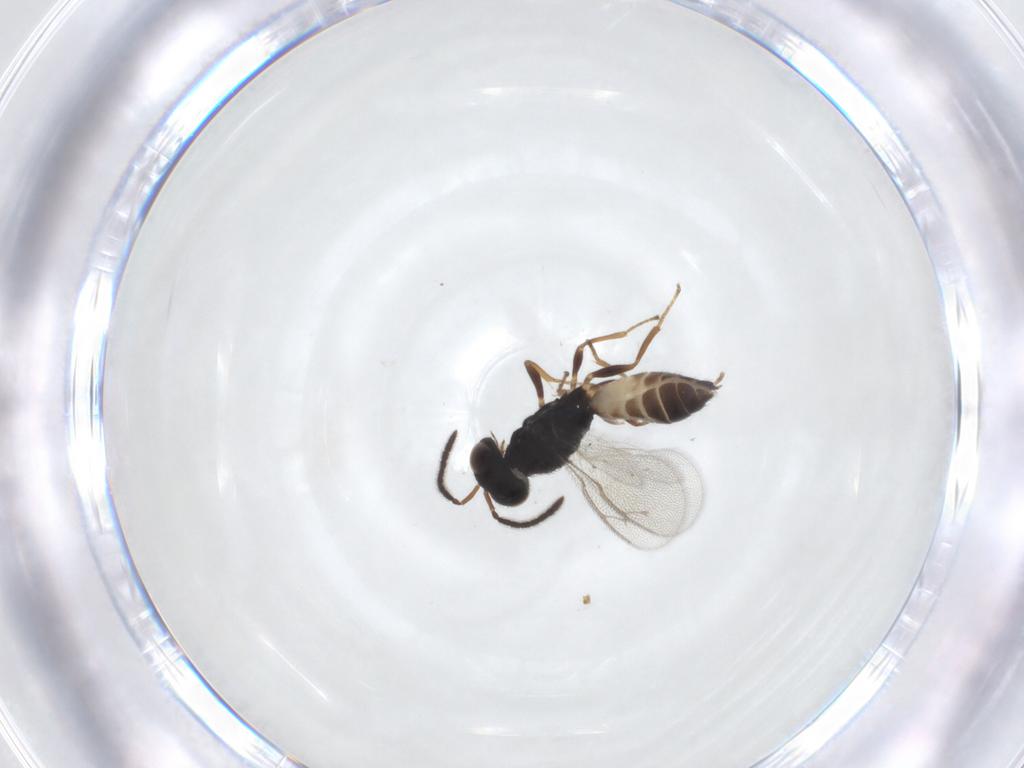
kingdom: Animalia
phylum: Arthropoda
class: Insecta
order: Hymenoptera
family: Pteromalidae
